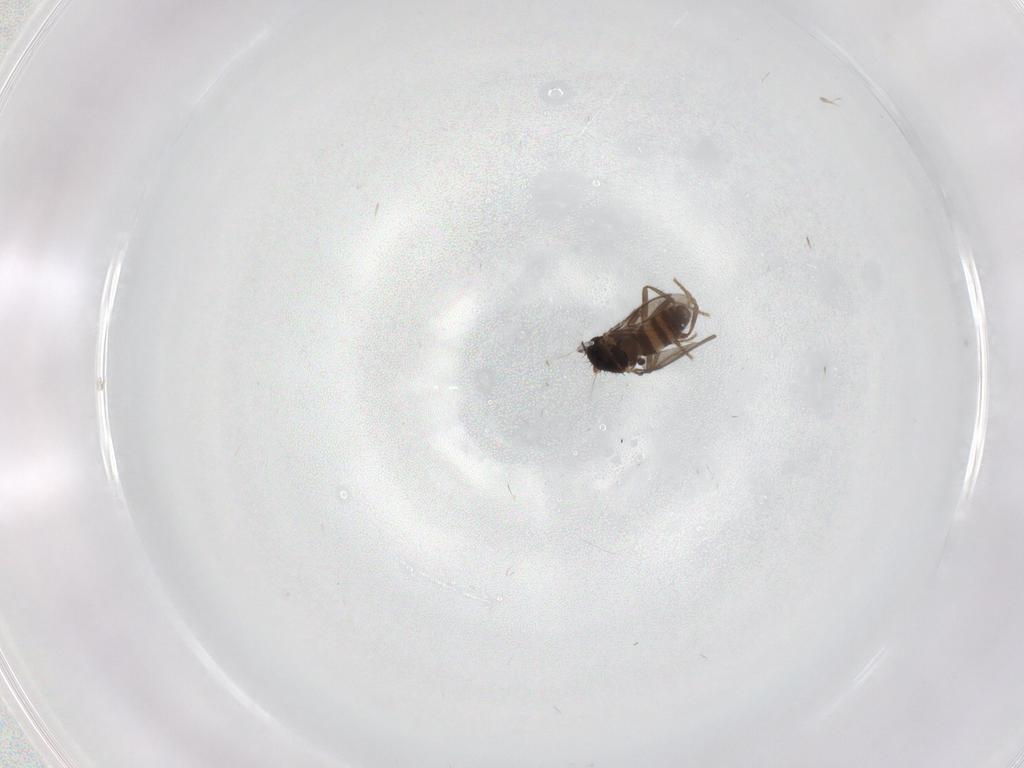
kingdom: Animalia
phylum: Arthropoda
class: Insecta
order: Diptera
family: Sphaeroceridae
